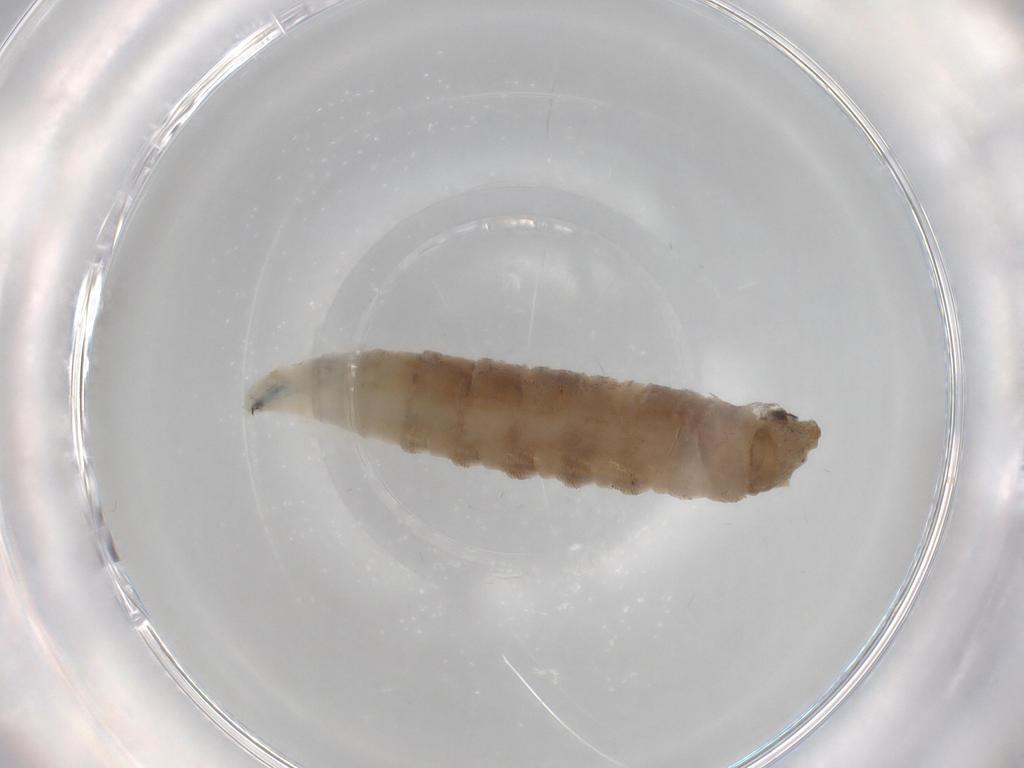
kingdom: Animalia
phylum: Arthropoda
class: Insecta
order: Diptera
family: Drosophilidae
